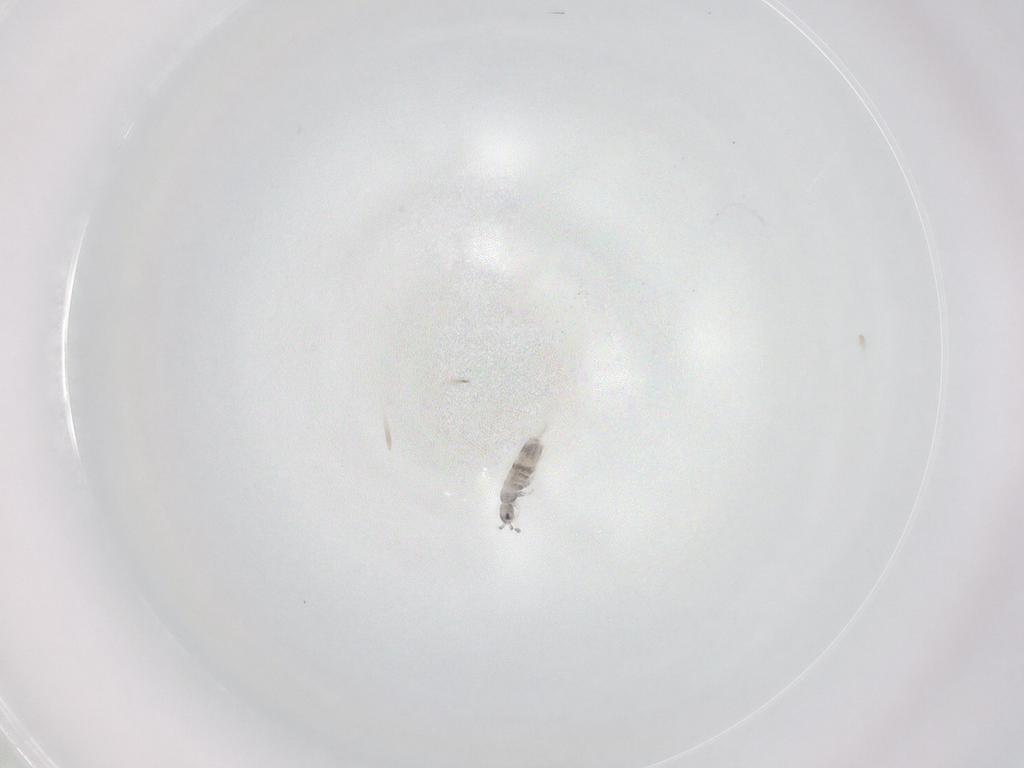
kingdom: Animalia
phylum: Arthropoda
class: Collembola
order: Entomobryomorpha
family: Entomobryidae
